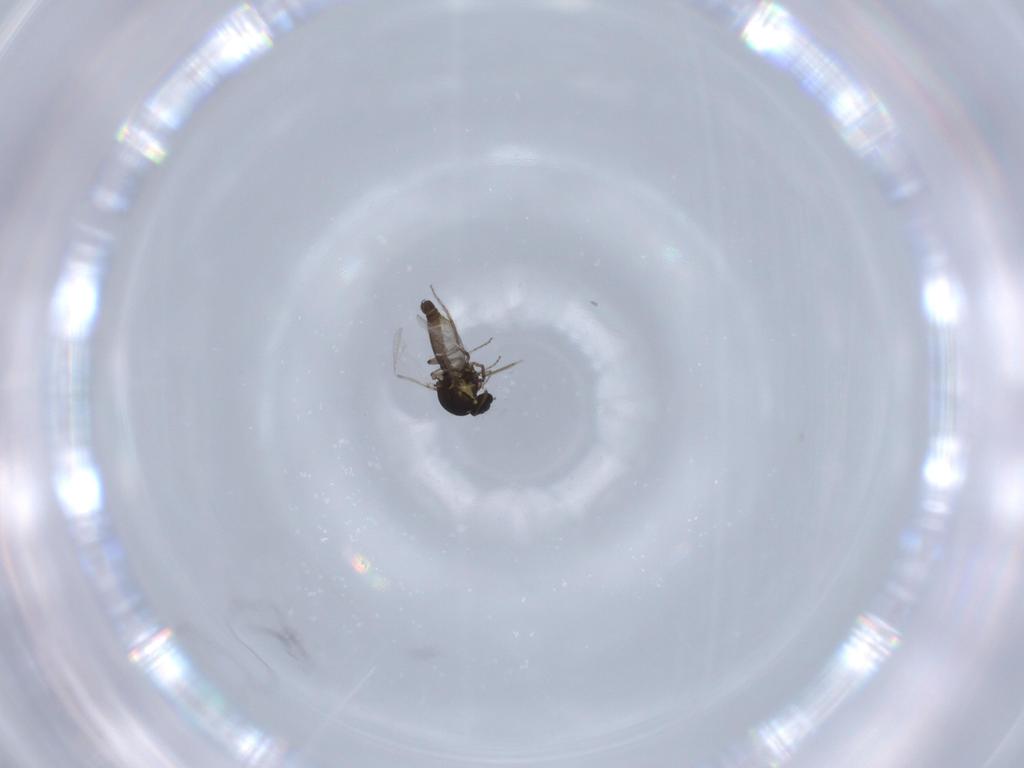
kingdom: Animalia
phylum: Arthropoda
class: Insecta
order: Diptera
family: Ceratopogonidae
